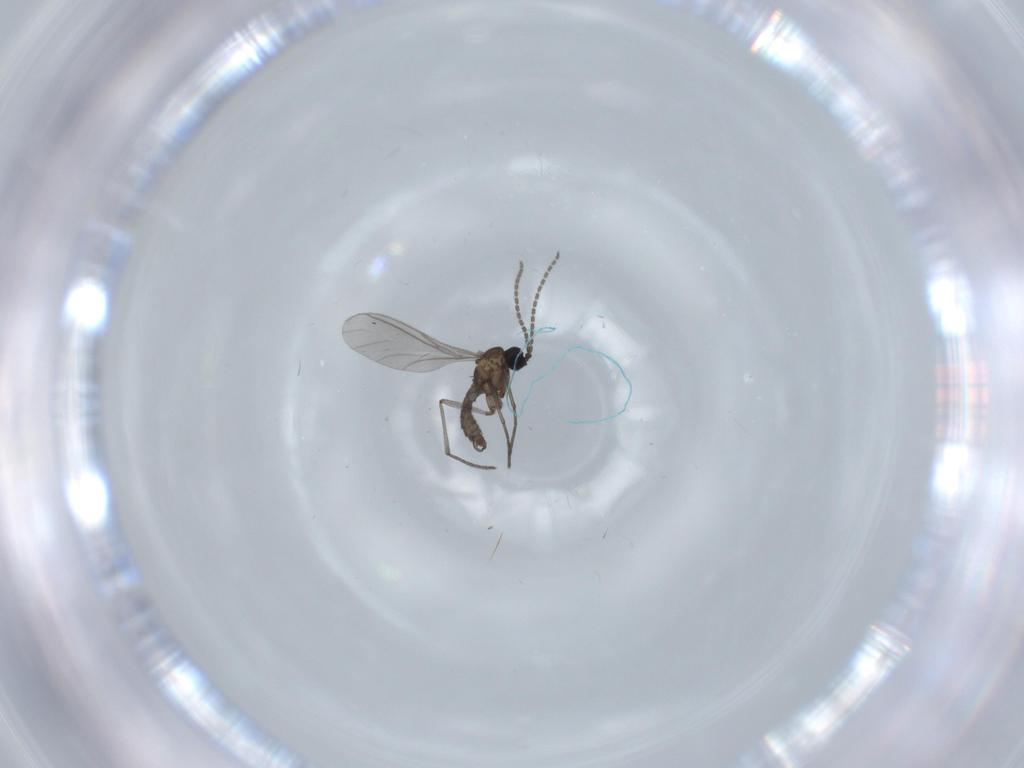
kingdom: Animalia
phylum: Arthropoda
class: Insecta
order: Diptera
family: Sciaridae
